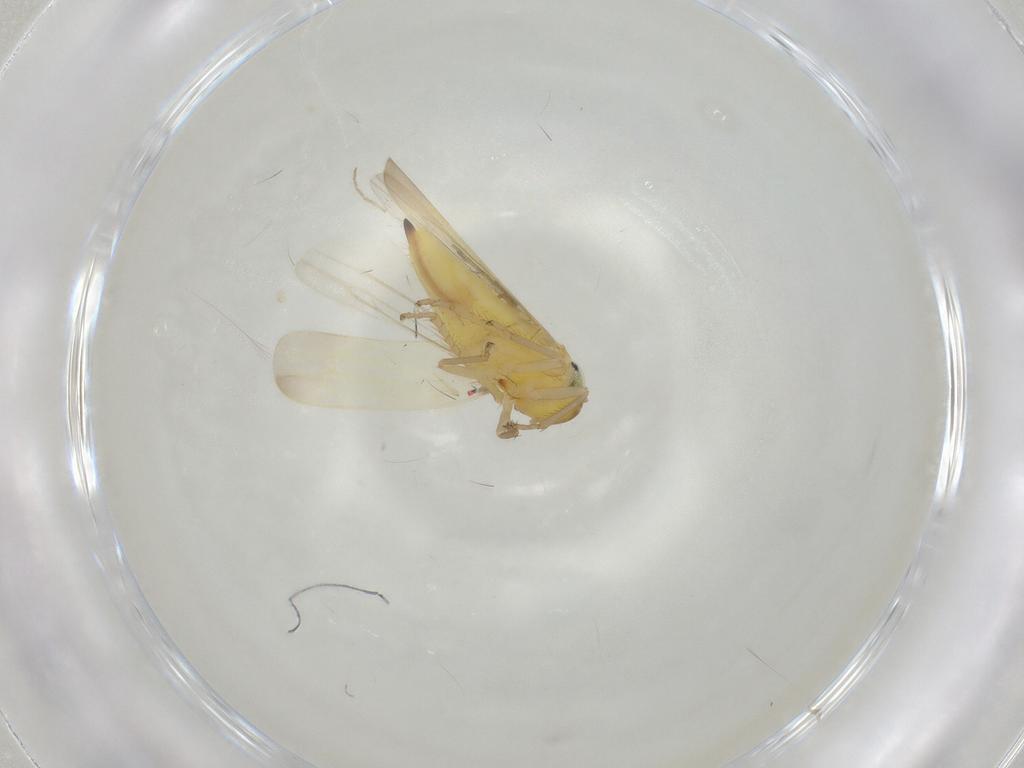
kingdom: Animalia
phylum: Arthropoda
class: Insecta
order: Hemiptera
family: Cicadellidae
